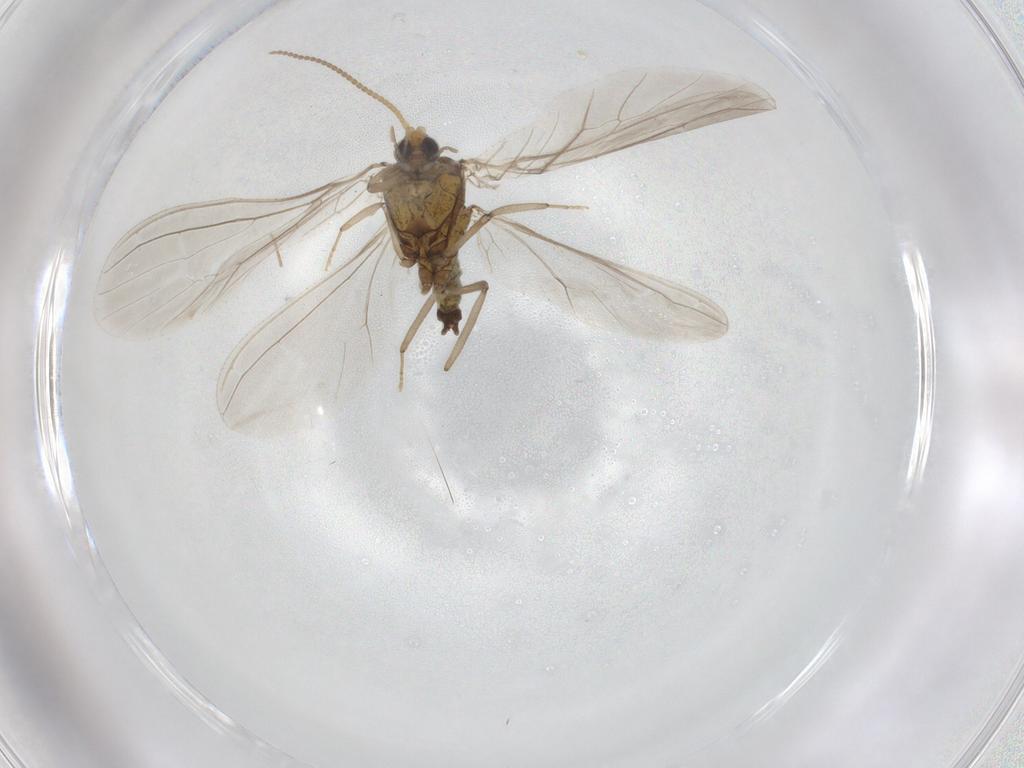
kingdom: Animalia
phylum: Arthropoda
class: Insecta
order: Neuroptera
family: Coniopterygidae
